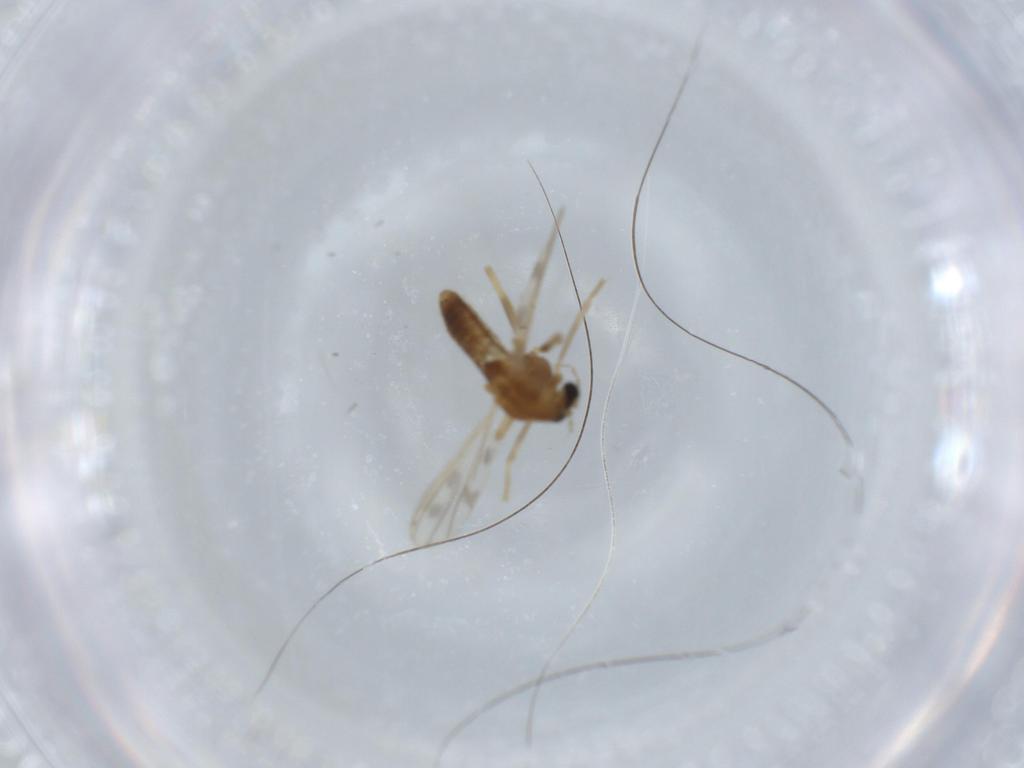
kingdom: Animalia
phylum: Arthropoda
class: Insecta
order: Diptera
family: Chironomidae
